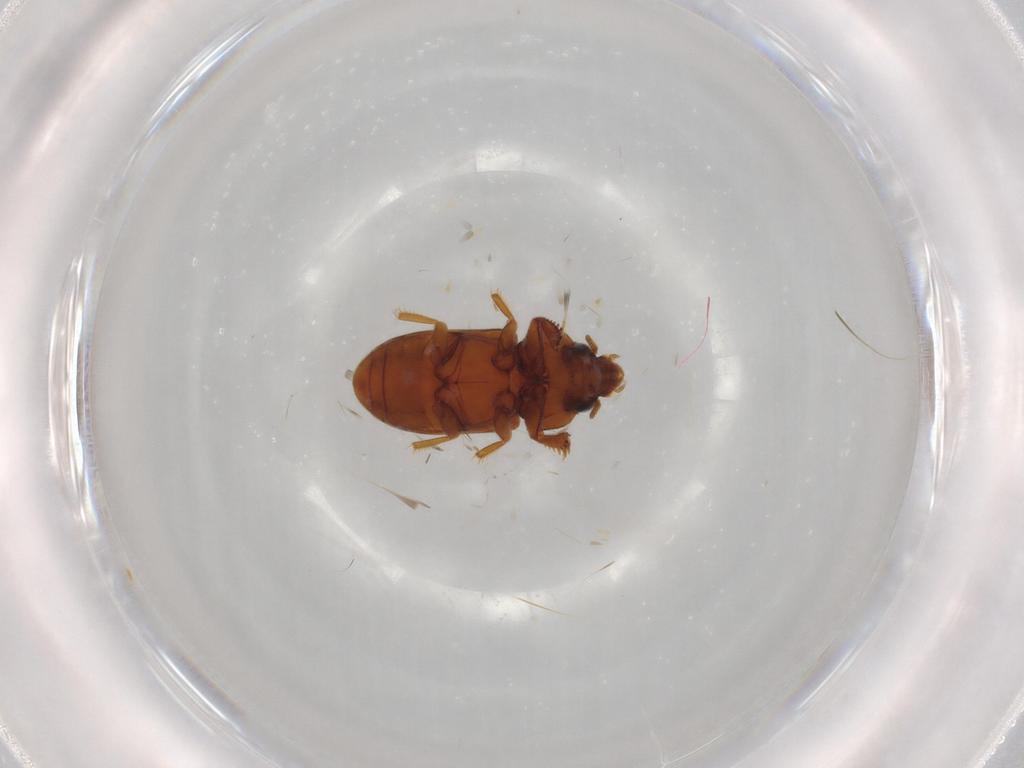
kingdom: Animalia
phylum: Arthropoda
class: Insecta
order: Coleoptera
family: Heteroceridae
